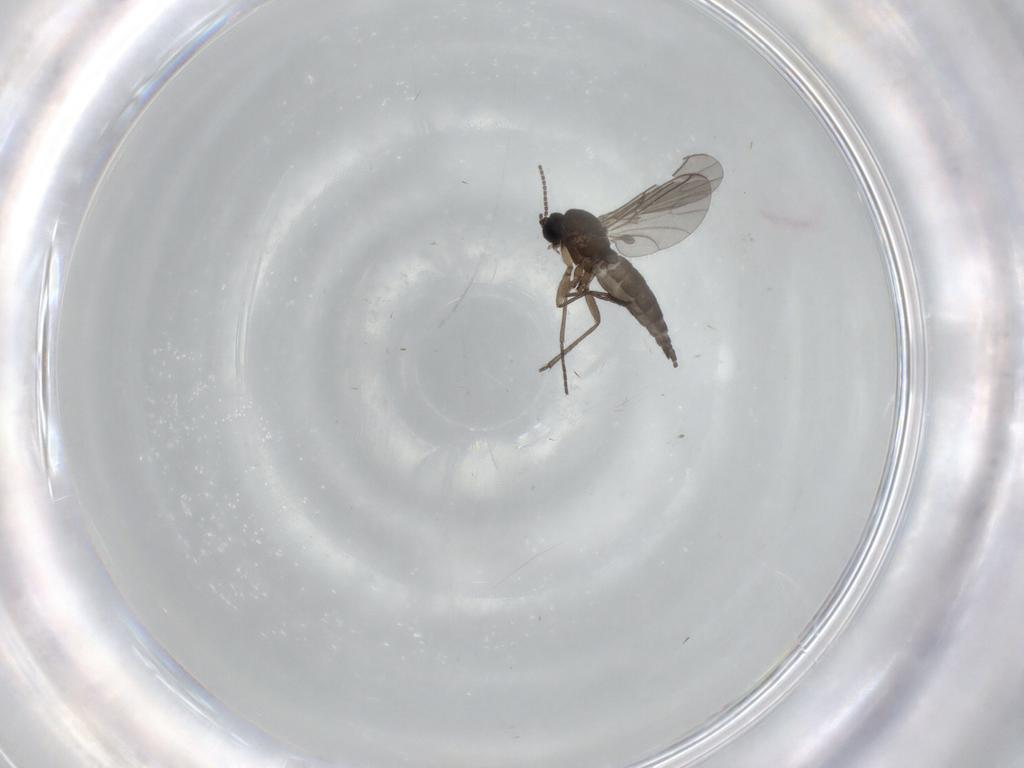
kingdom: Animalia
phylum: Arthropoda
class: Insecta
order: Diptera
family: Sciaridae
